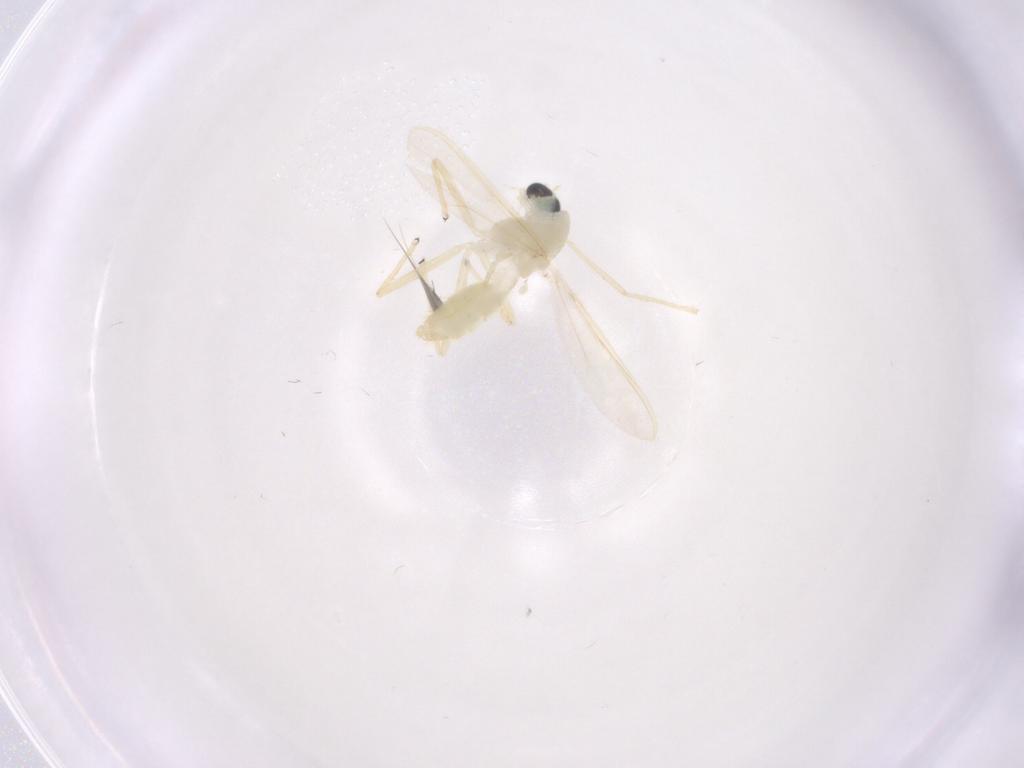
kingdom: Animalia
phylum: Arthropoda
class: Insecta
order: Diptera
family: Chironomidae
